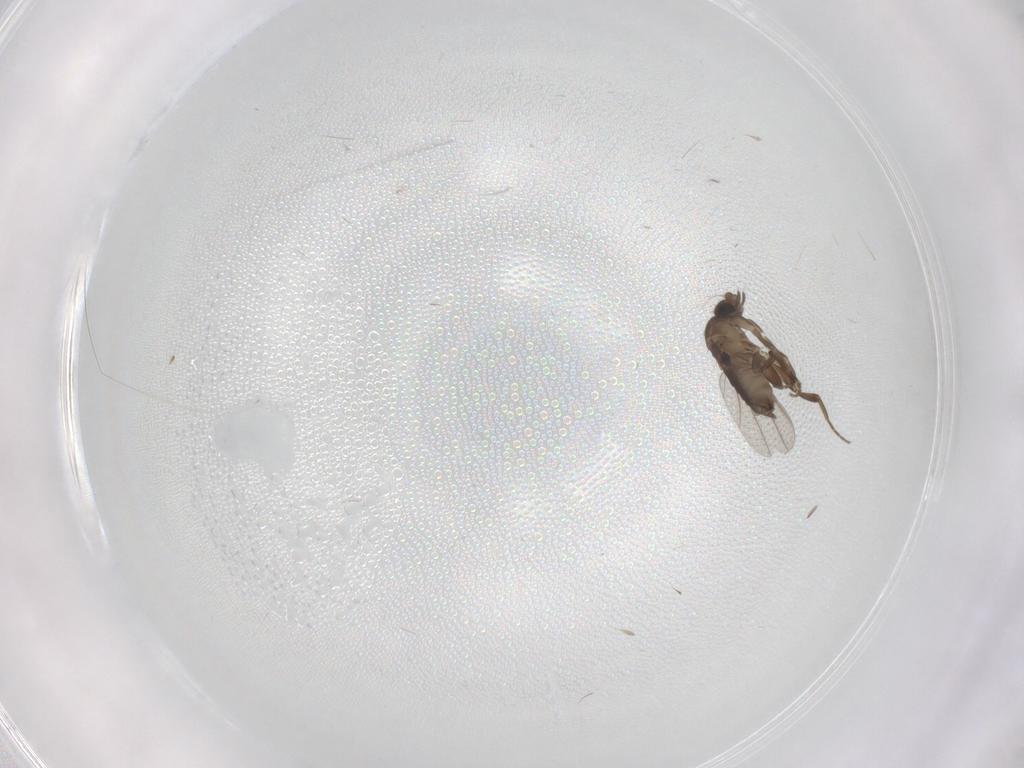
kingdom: Animalia
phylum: Arthropoda
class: Insecta
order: Diptera
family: Phoridae
